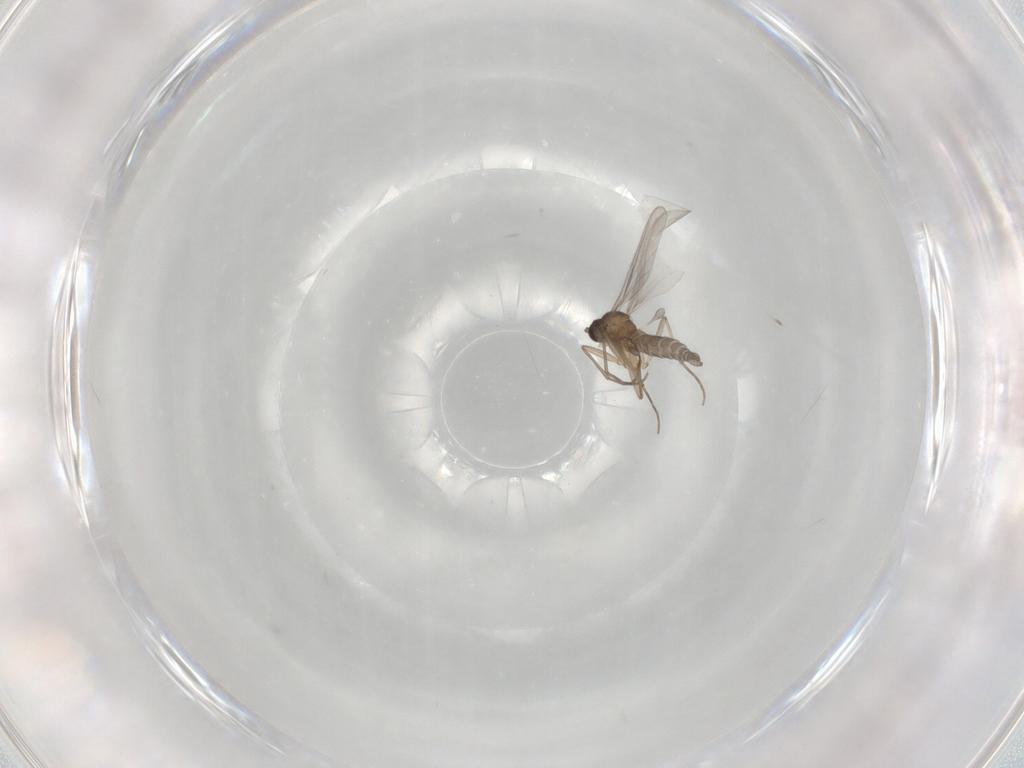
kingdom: Animalia
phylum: Arthropoda
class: Insecta
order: Diptera
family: Sciaridae
